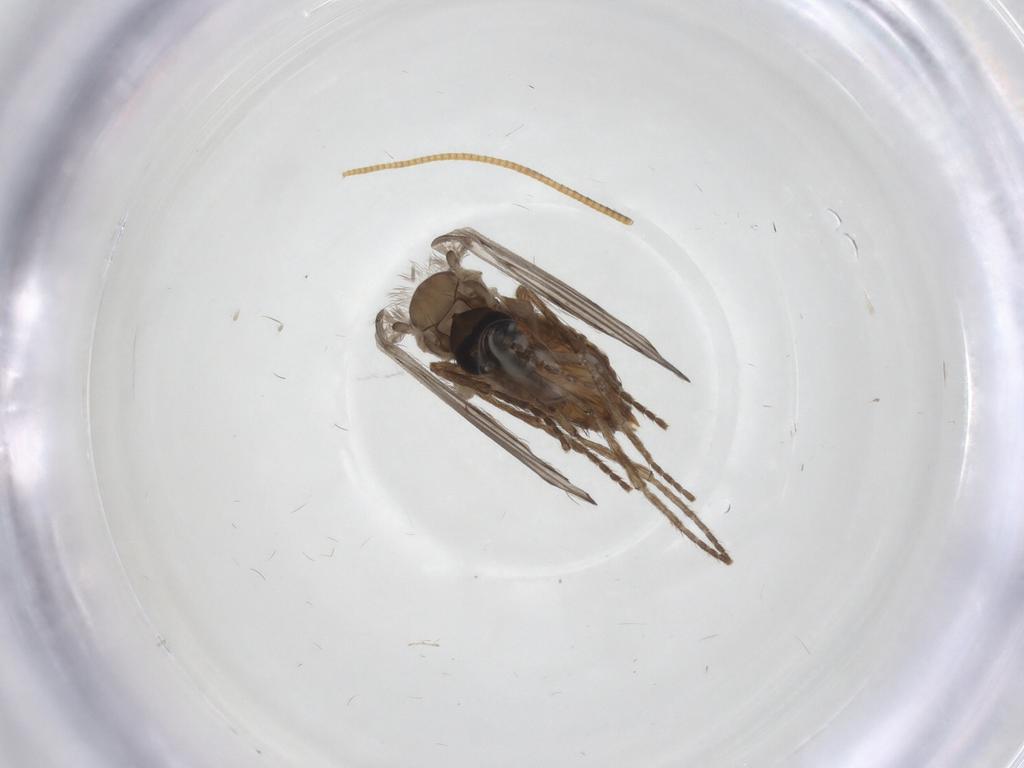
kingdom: Animalia
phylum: Arthropoda
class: Insecta
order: Diptera
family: Psychodidae
